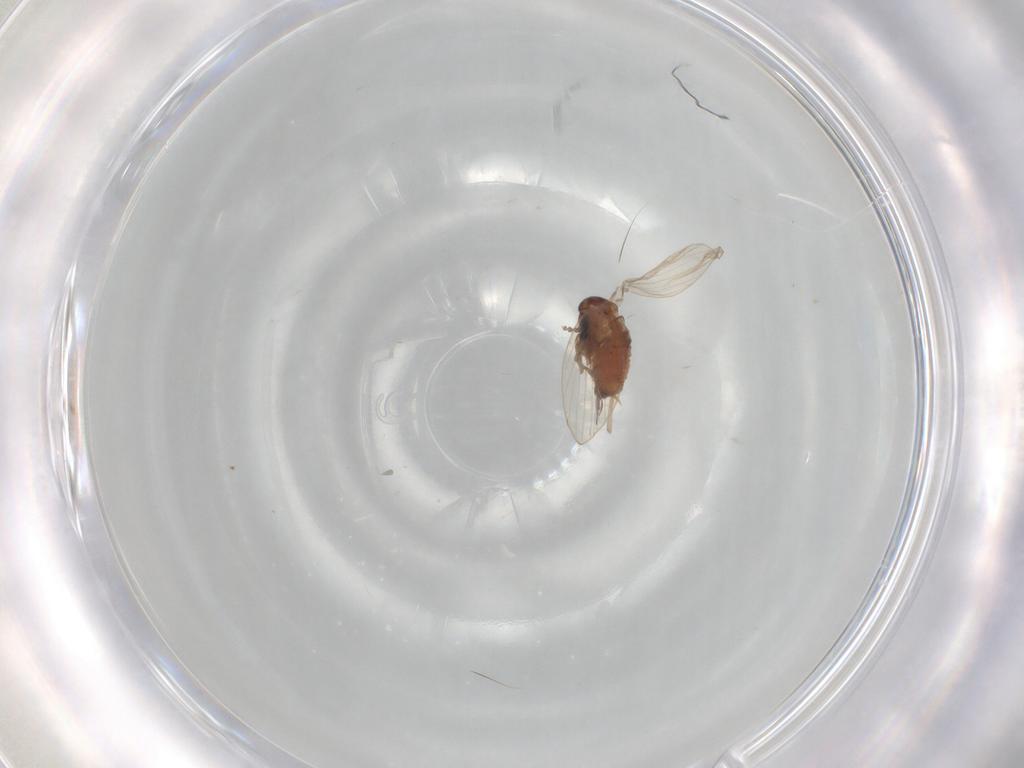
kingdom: Animalia
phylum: Arthropoda
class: Insecta
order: Diptera
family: Psychodidae
